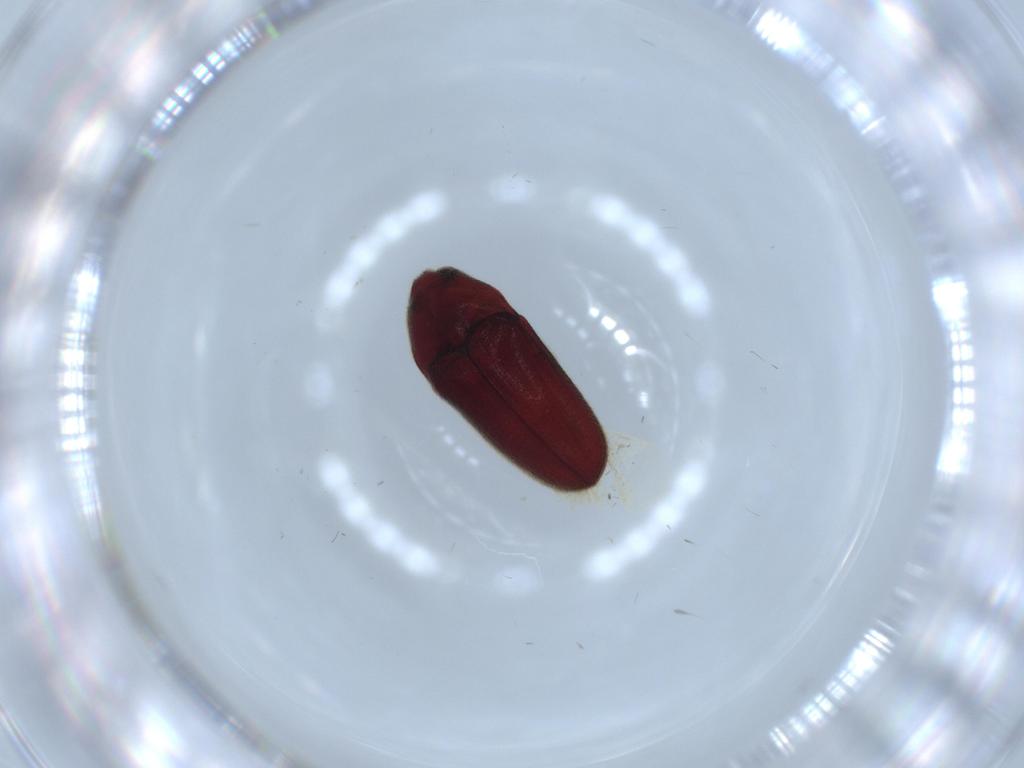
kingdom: Animalia
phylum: Arthropoda
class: Insecta
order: Coleoptera
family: Throscidae
